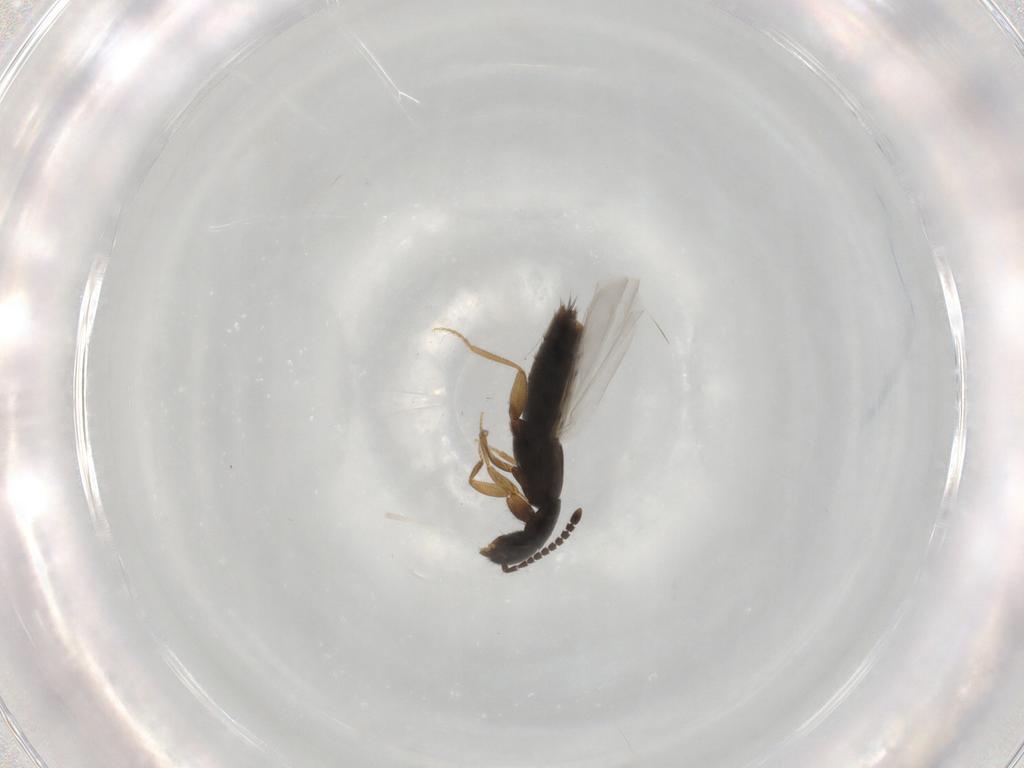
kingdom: Animalia
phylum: Arthropoda
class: Insecta
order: Coleoptera
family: Staphylinidae
